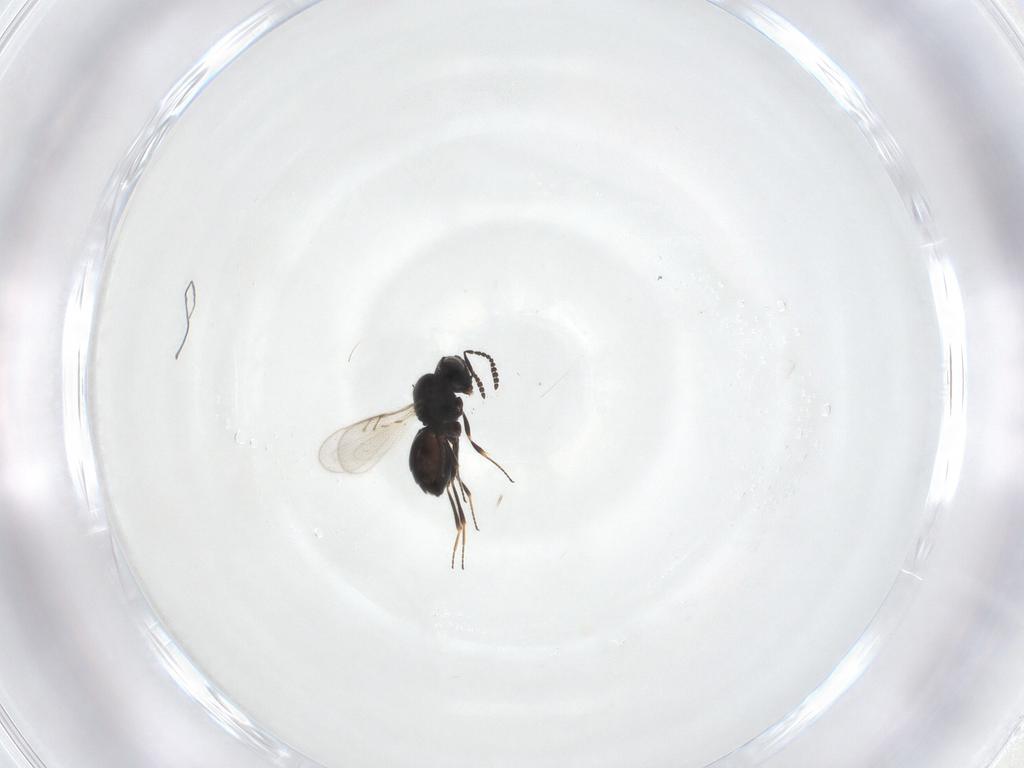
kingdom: Animalia
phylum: Arthropoda
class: Insecta
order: Hymenoptera
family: Scelionidae
